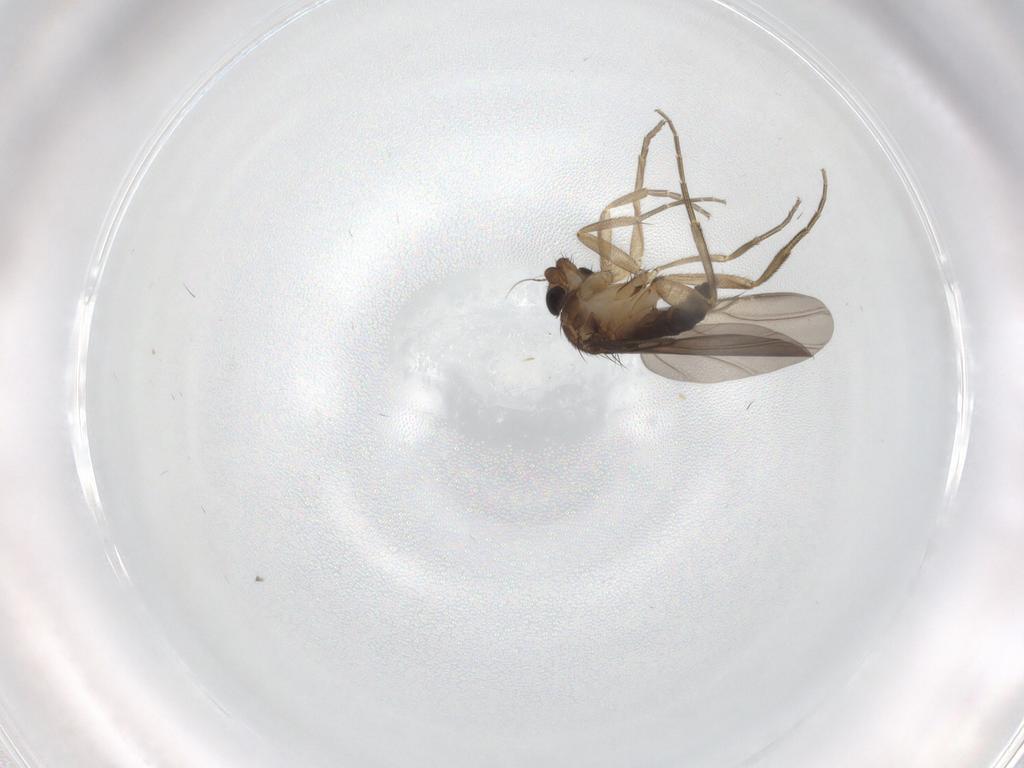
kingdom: Animalia
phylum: Arthropoda
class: Insecta
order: Diptera
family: Phoridae
